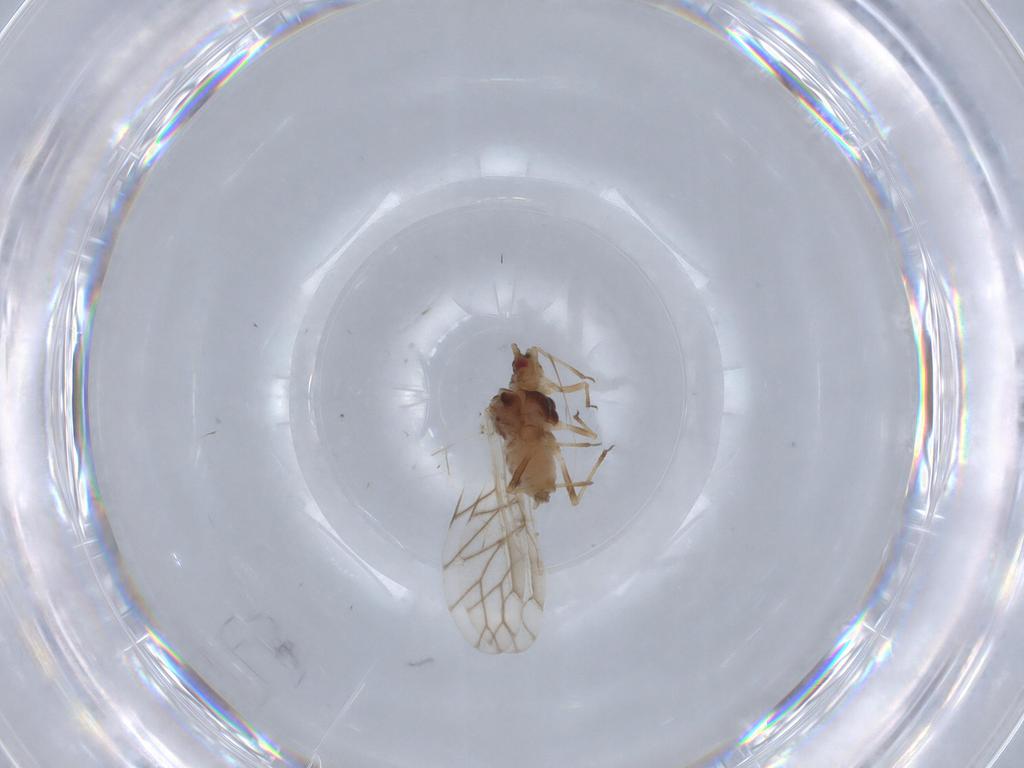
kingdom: Animalia
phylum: Arthropoda
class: Insecta
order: Hemiptera
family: Aphididae
